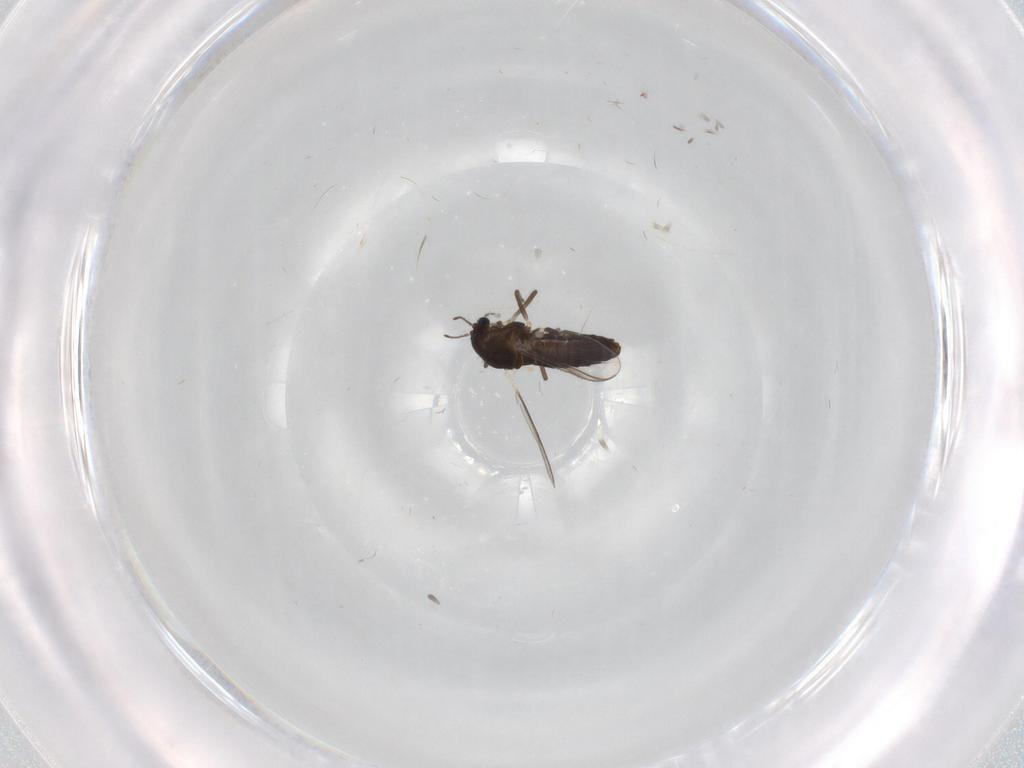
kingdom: Animalia
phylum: Arthropoda
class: Insecta
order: Diptera
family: Chironomidae
